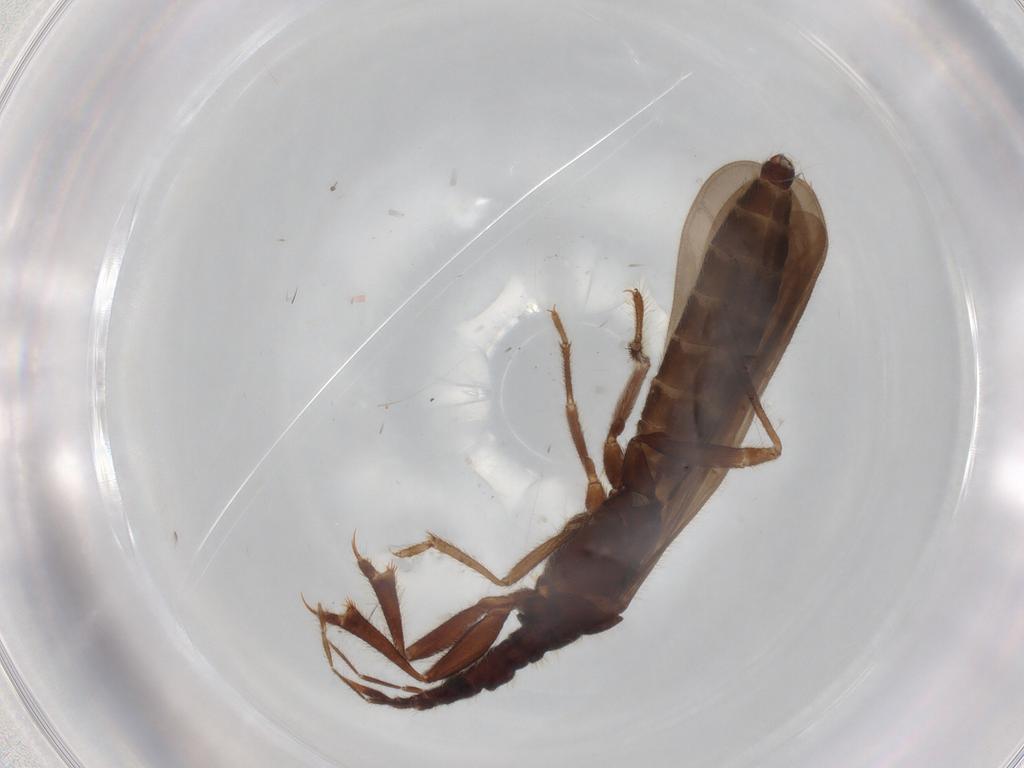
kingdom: Animalia
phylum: Arthropoda
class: Insecta
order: Hemiptera
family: Enicocephalidae
